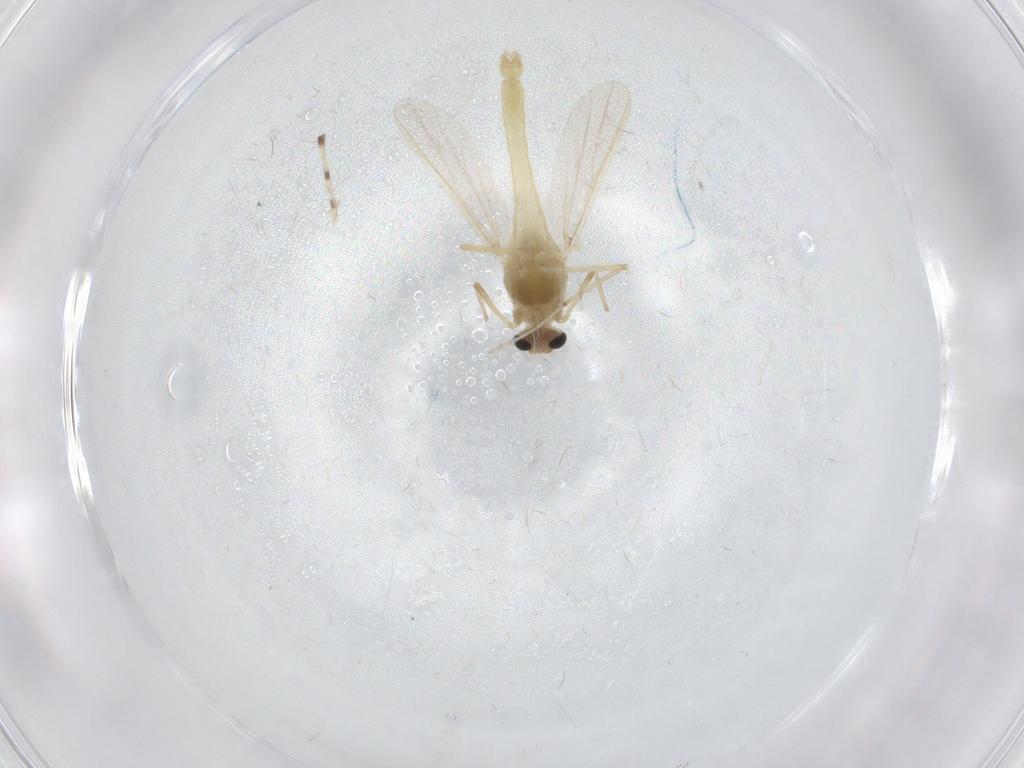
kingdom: Animalia
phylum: Arthropoda
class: Insecta
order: Diptera
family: Chironomidae
